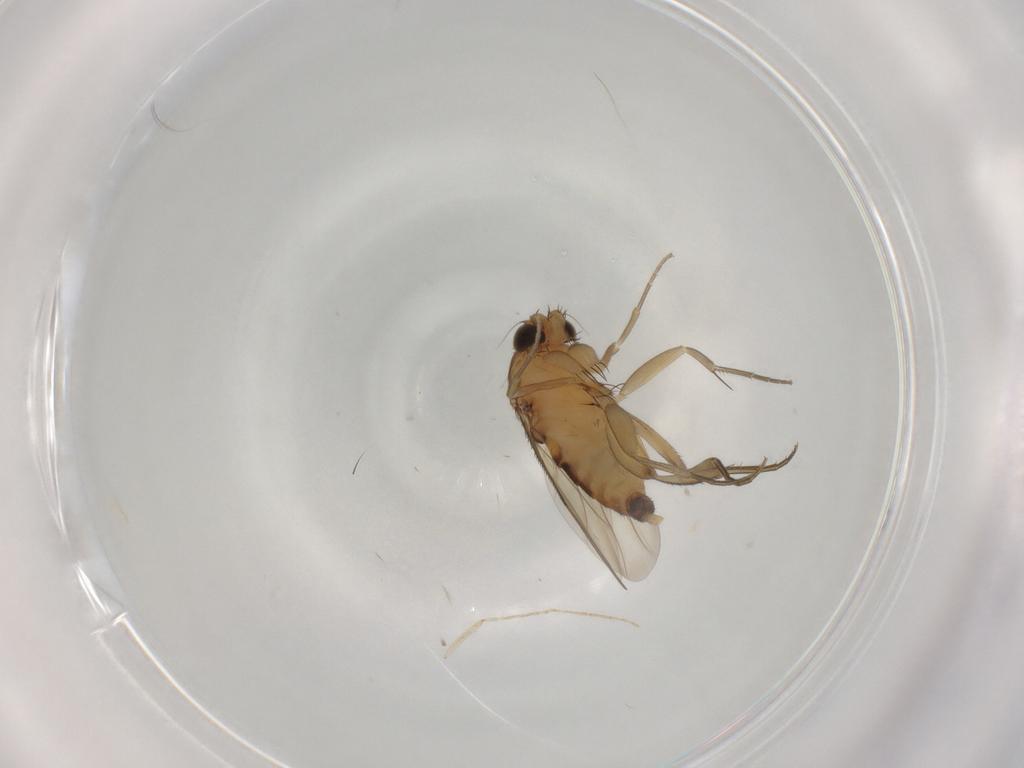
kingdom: Animalia
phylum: Arthropoda
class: Insecta
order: Diptera
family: Phoridae
